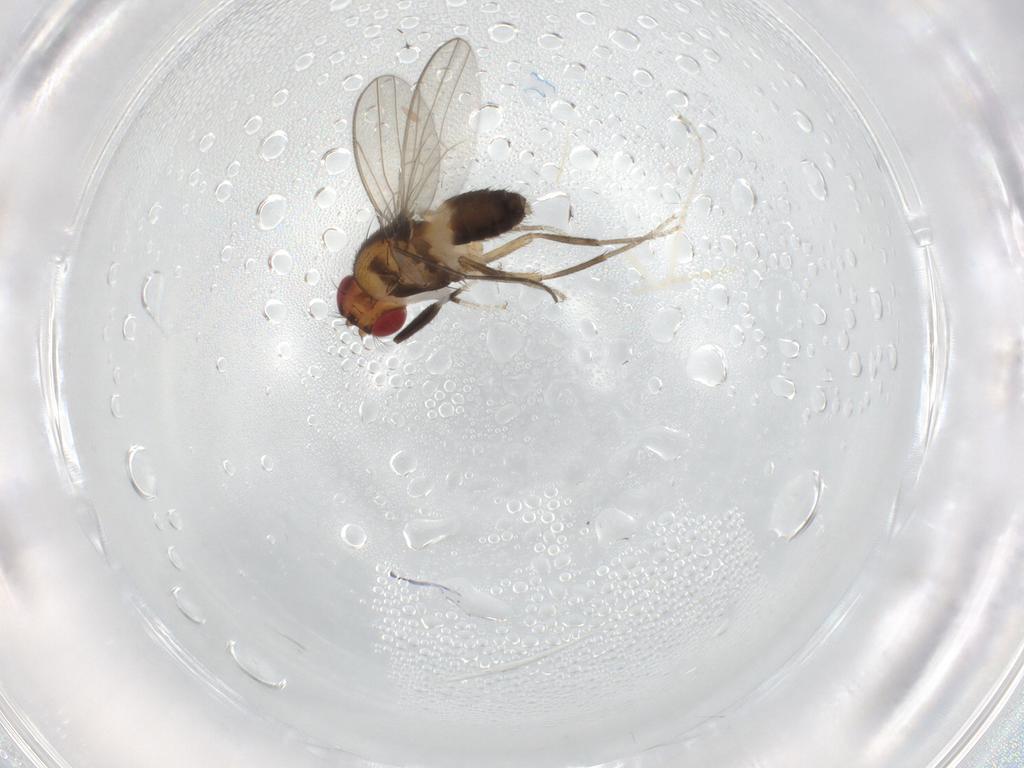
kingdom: Animalia
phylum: Arthropoda
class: Insecta
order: Diptera
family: Drosophilidae
